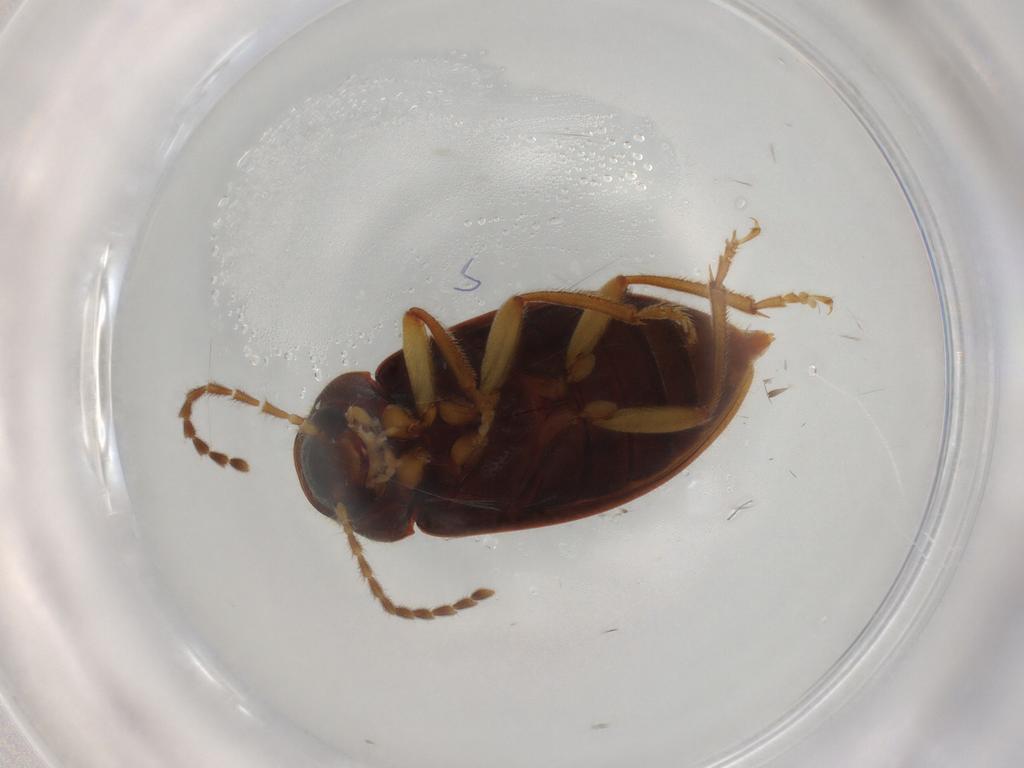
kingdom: Animalia
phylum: Arthropoda
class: Insecta
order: Coleoptera
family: Ptilodactylidae
